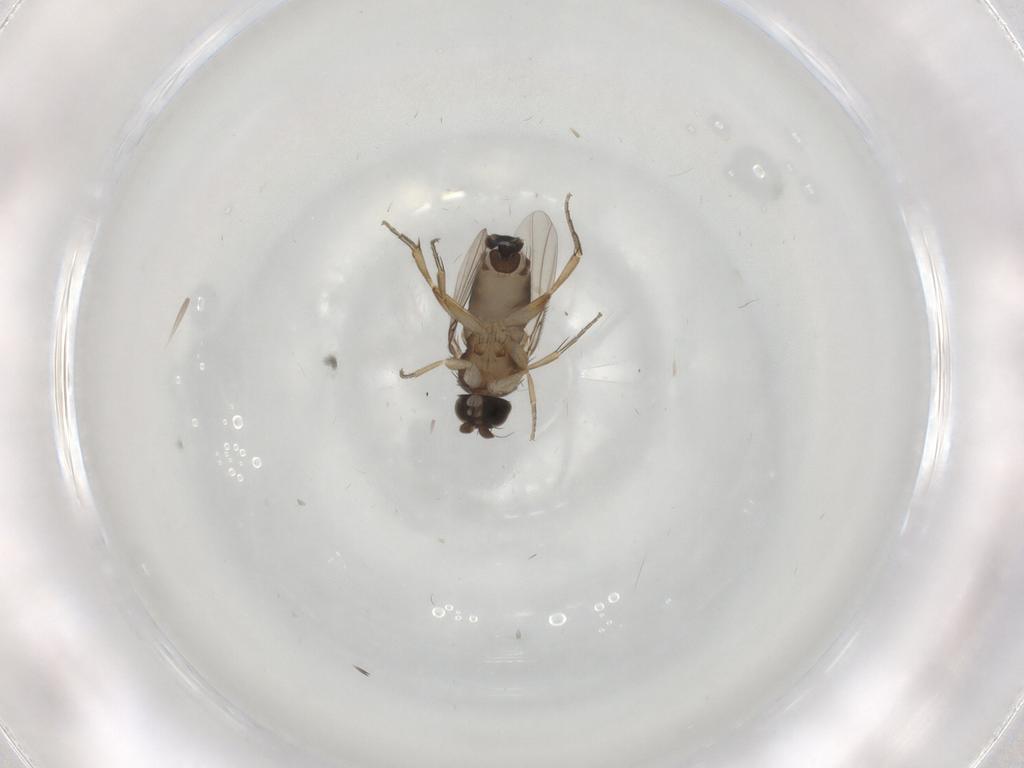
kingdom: Animalia
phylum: Arthropoda
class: Insecta
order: Diptera
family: Phoridae
